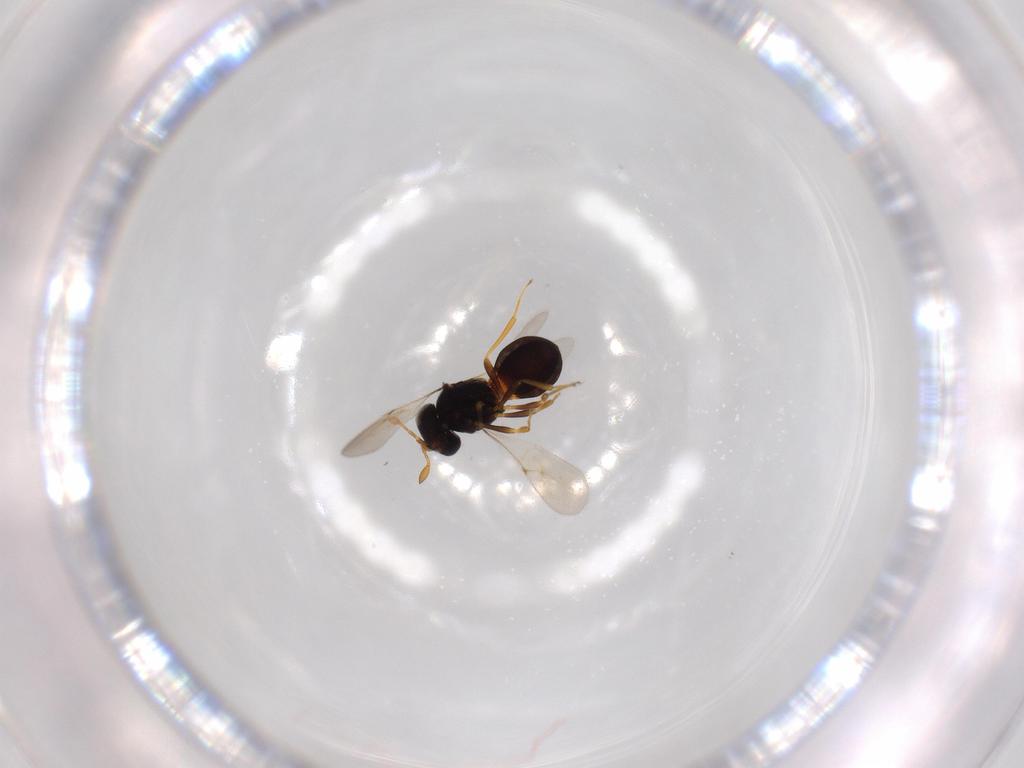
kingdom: Animalia
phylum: Arthropoda
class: Insecta
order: Hymenoptera
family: Scelionidae
